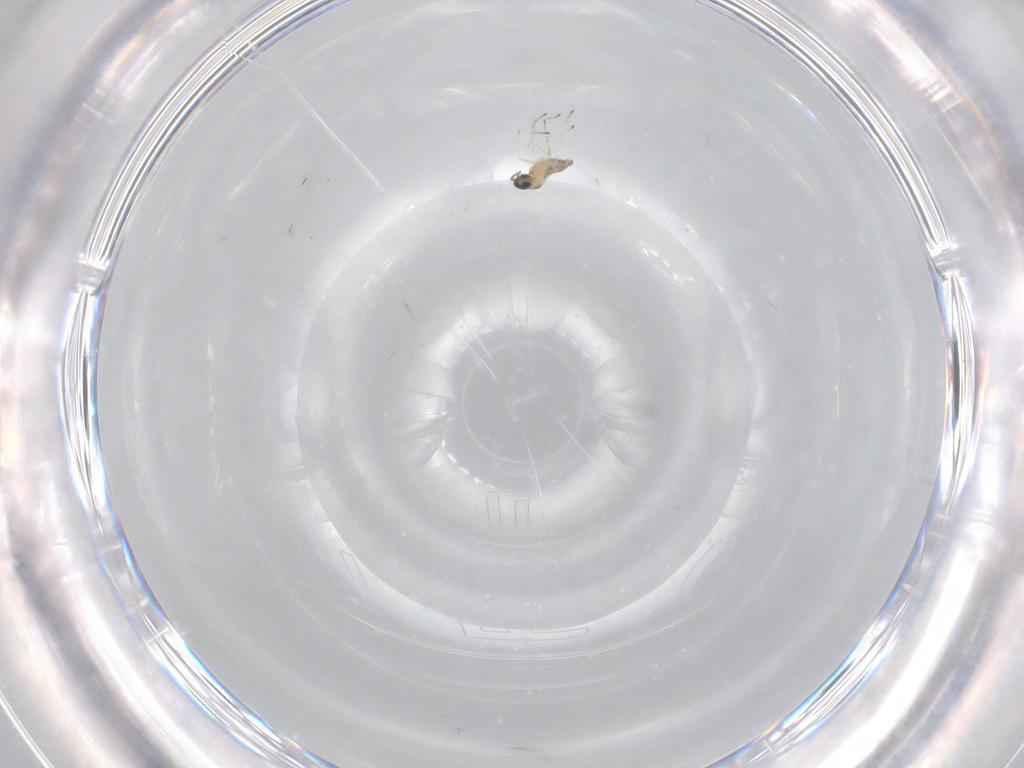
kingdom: Animalia
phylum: Arthropoda
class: Insecta
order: Diptera
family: Cecidomyiidae
